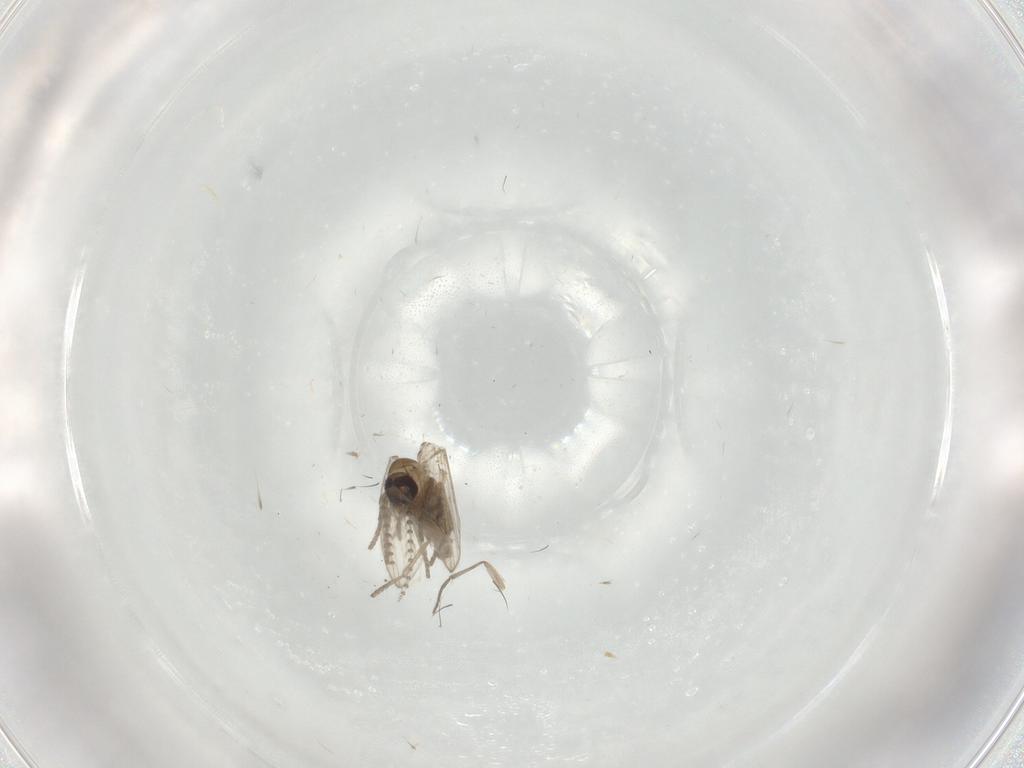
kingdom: Animalia
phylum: Arthropoda
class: Insecta
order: Diptera
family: Psychodidae
